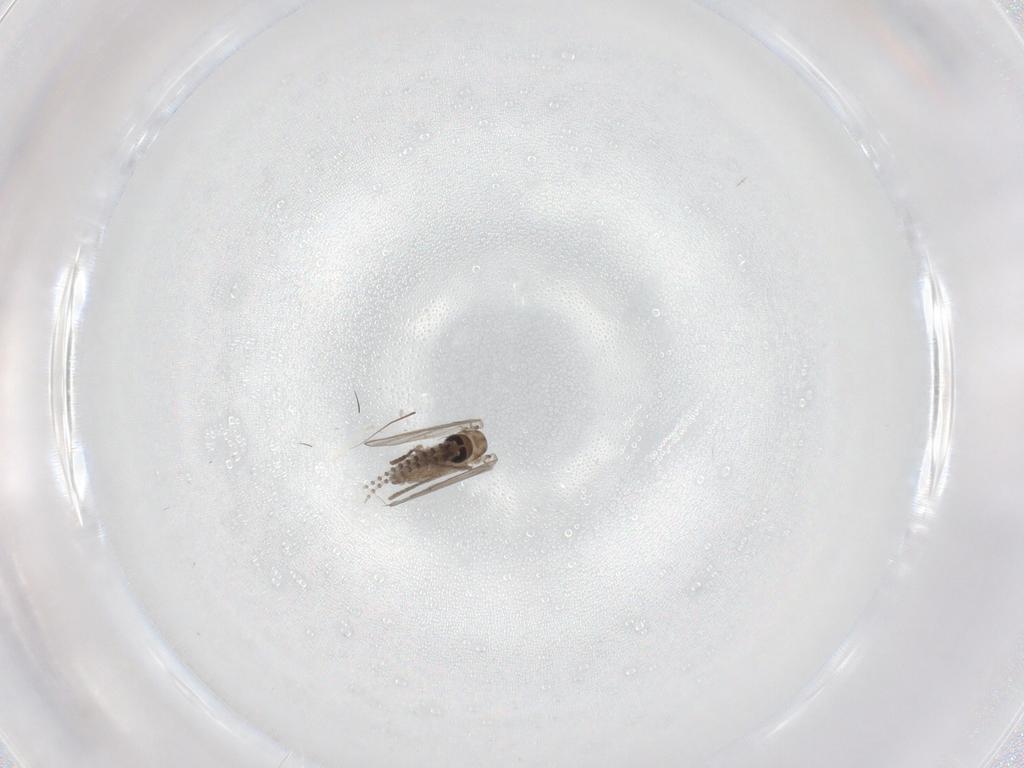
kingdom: Animalia
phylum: Arthropoda
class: Insecta
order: Diptera
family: Psychodidae
